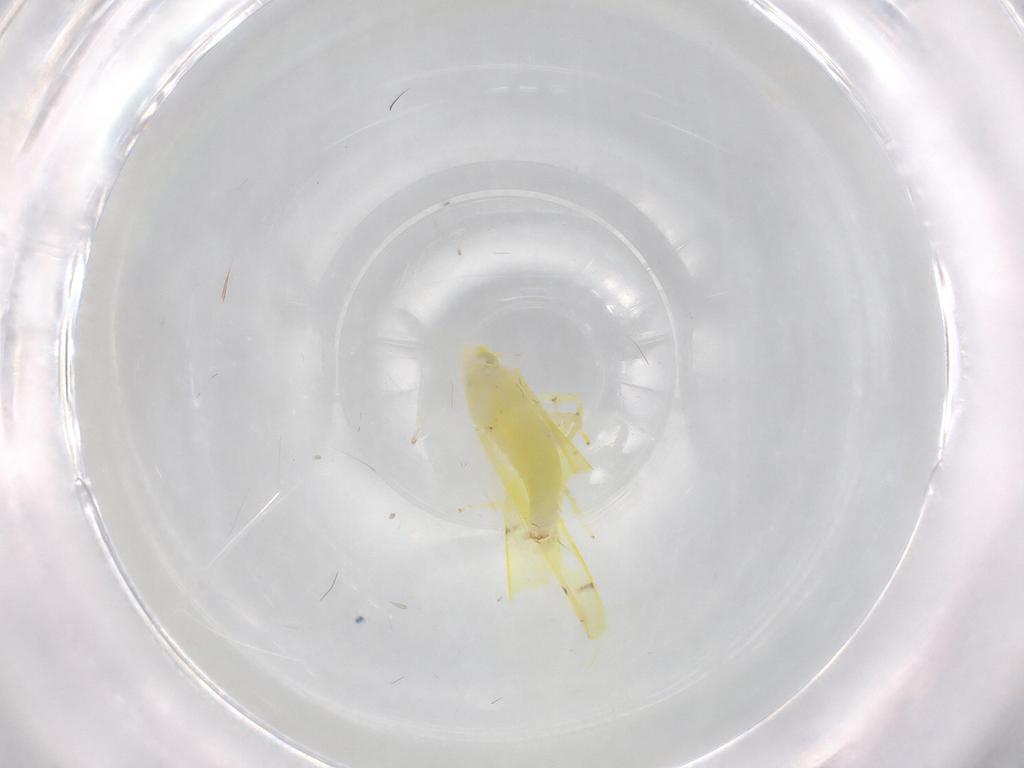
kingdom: Animalia
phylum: Arthropoda
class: Insecta
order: Hemiptera
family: Cicadellidae
